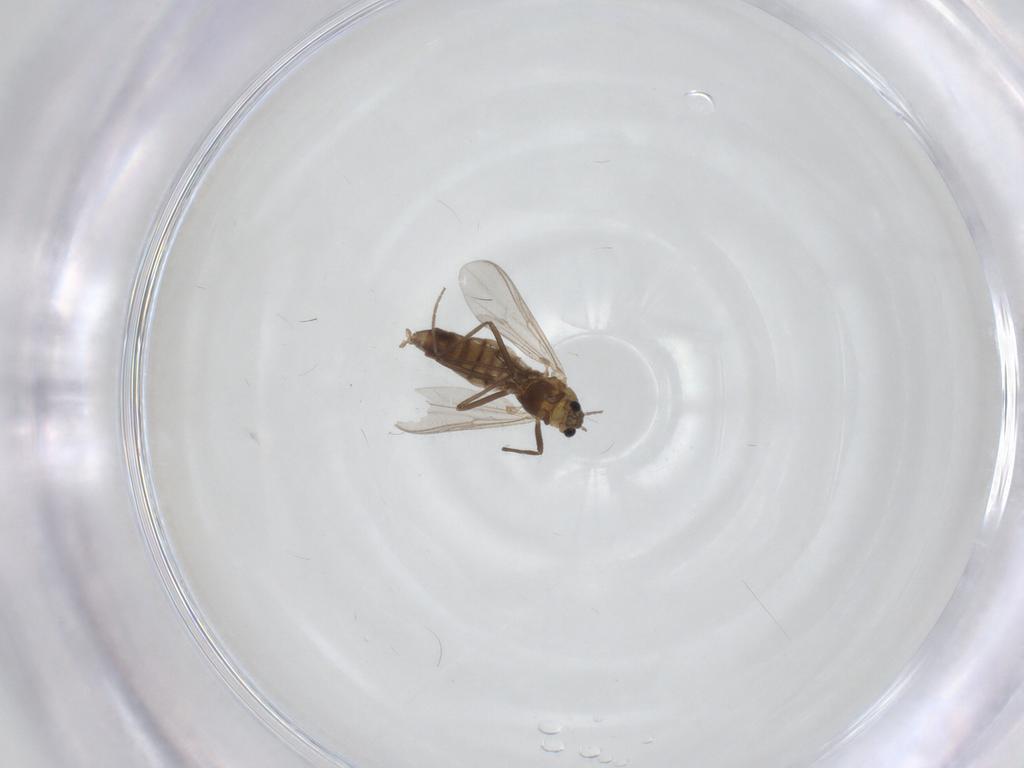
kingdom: Animalia
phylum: Arthropoda
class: Insecta
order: Diptera
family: Chironomidae
